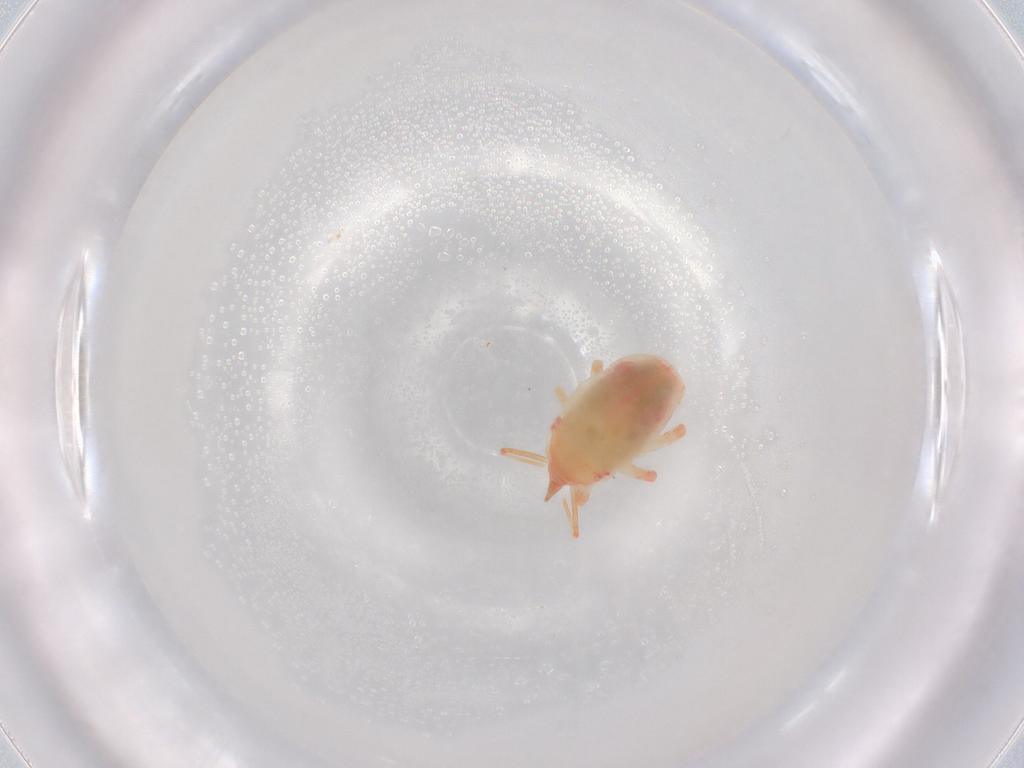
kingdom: Animalia
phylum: Arthropoda
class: Arachnida
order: Trombidiformes
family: Bdellidae
